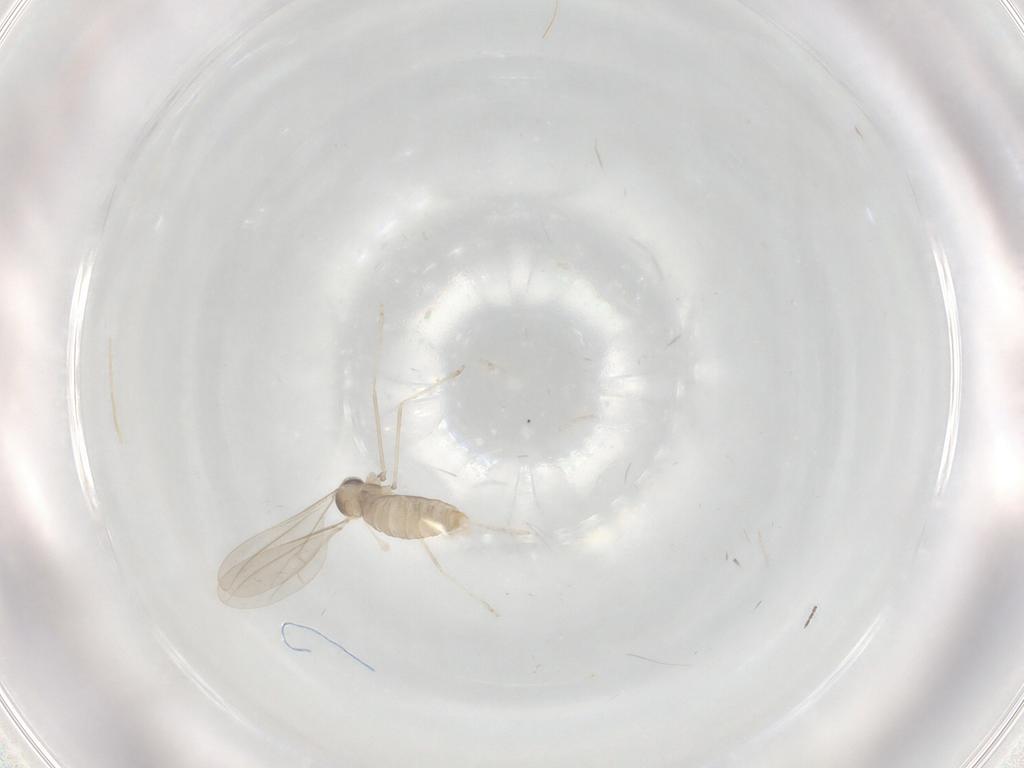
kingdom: Animalia
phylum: Arthropoda
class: Insecta
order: Diptera
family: Cecidomyiidae
